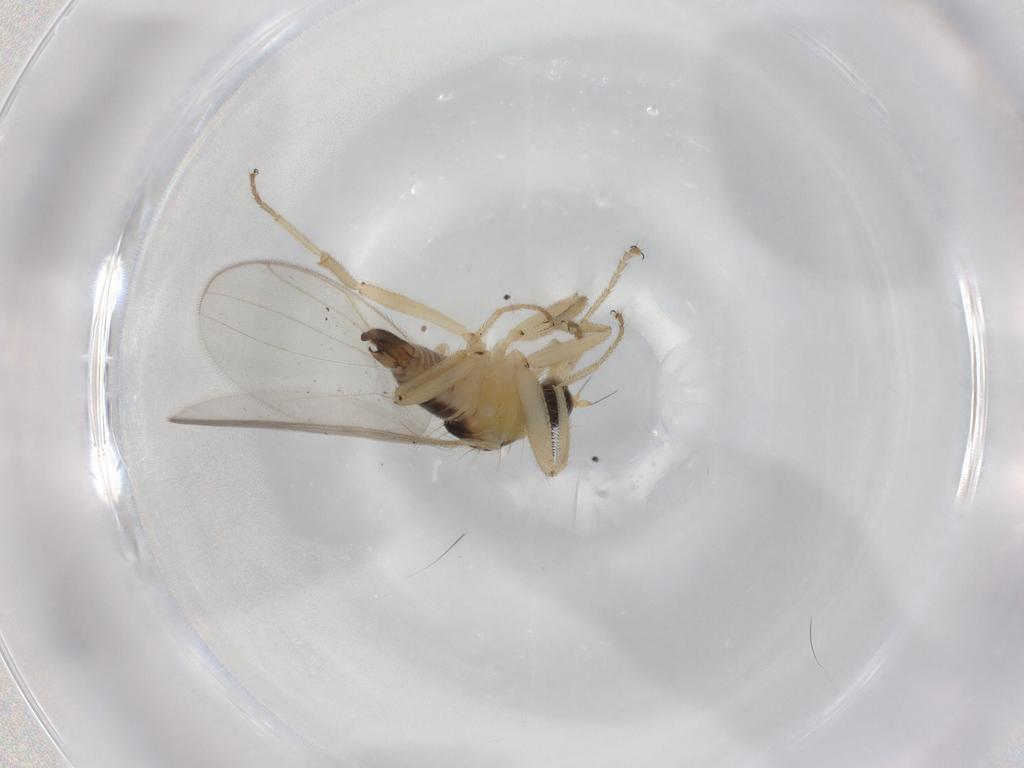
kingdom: Animalia
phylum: Arthropoda
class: Insecta
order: Diptera
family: Hybotidae
